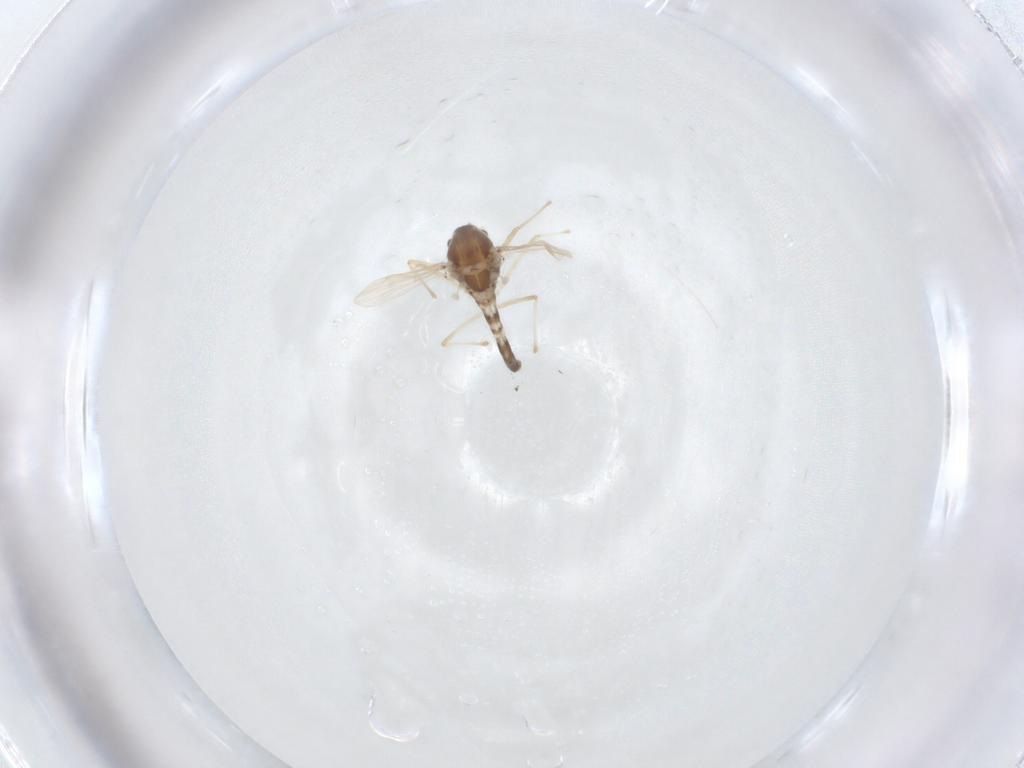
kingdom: Animalia
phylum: Arthropoda
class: Insecta
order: Diptera
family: Chironomidae
